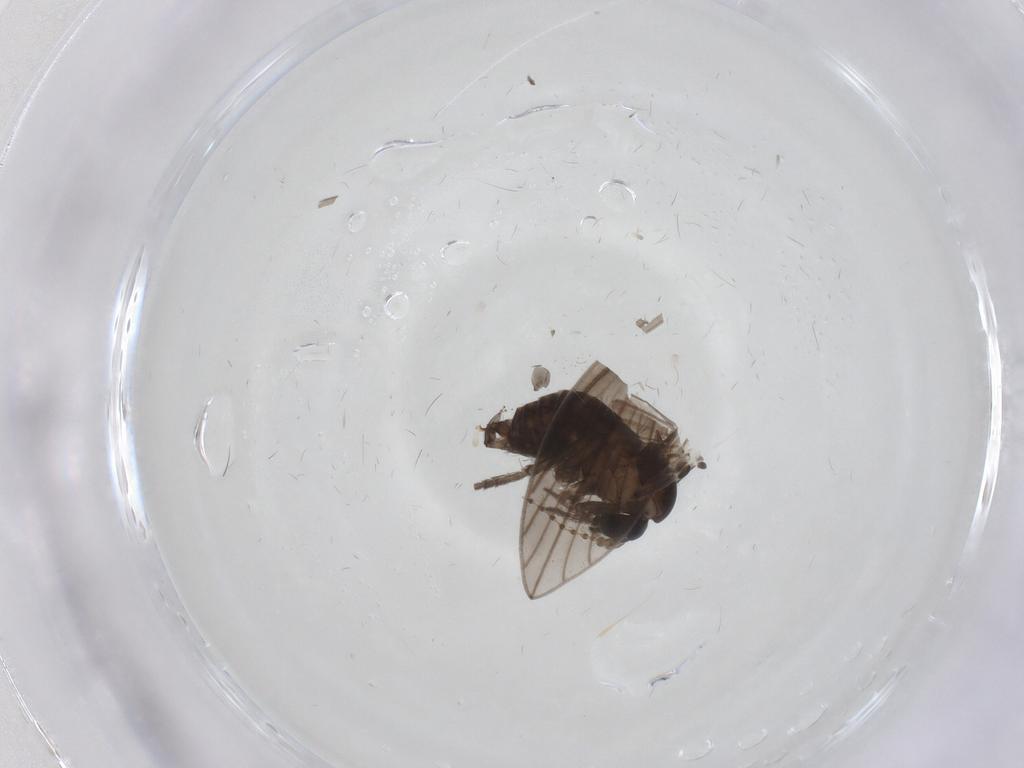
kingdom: Animalia
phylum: Arthropoda
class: Insecta
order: Diptera
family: Psychodidae
